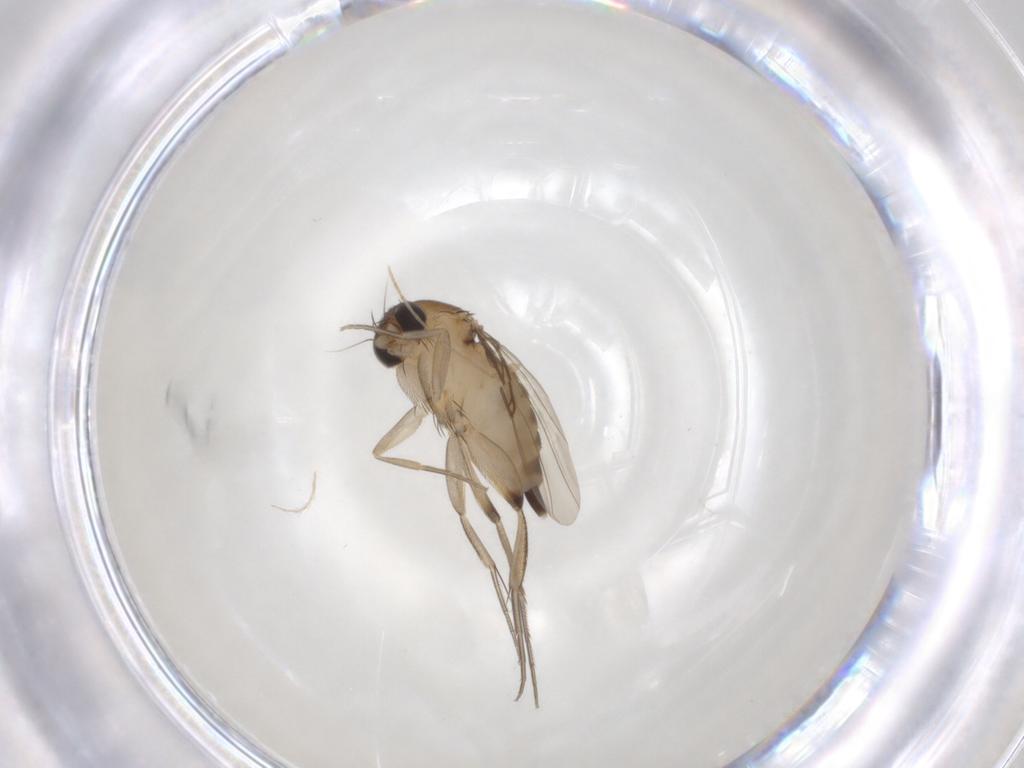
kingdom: Animalia
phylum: Arthropoda
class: Insecta
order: Diptera
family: Phoridae
